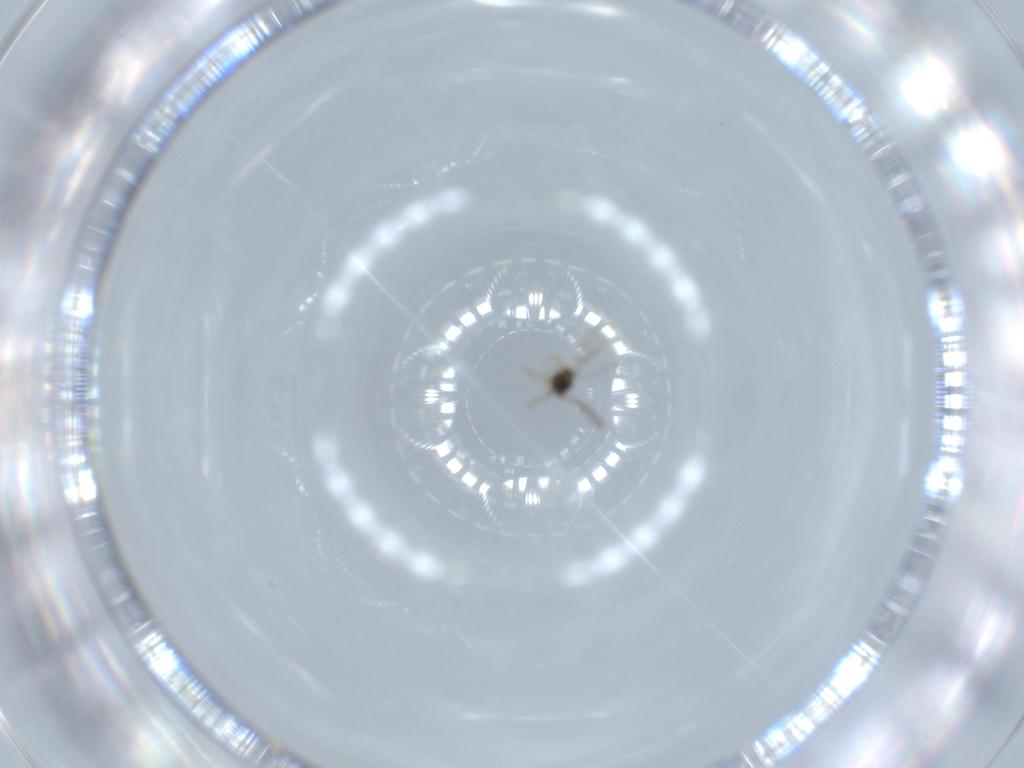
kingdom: Animalia
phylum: Arthropoda
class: Insecta
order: Hymenoptera
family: Aphelinidae
